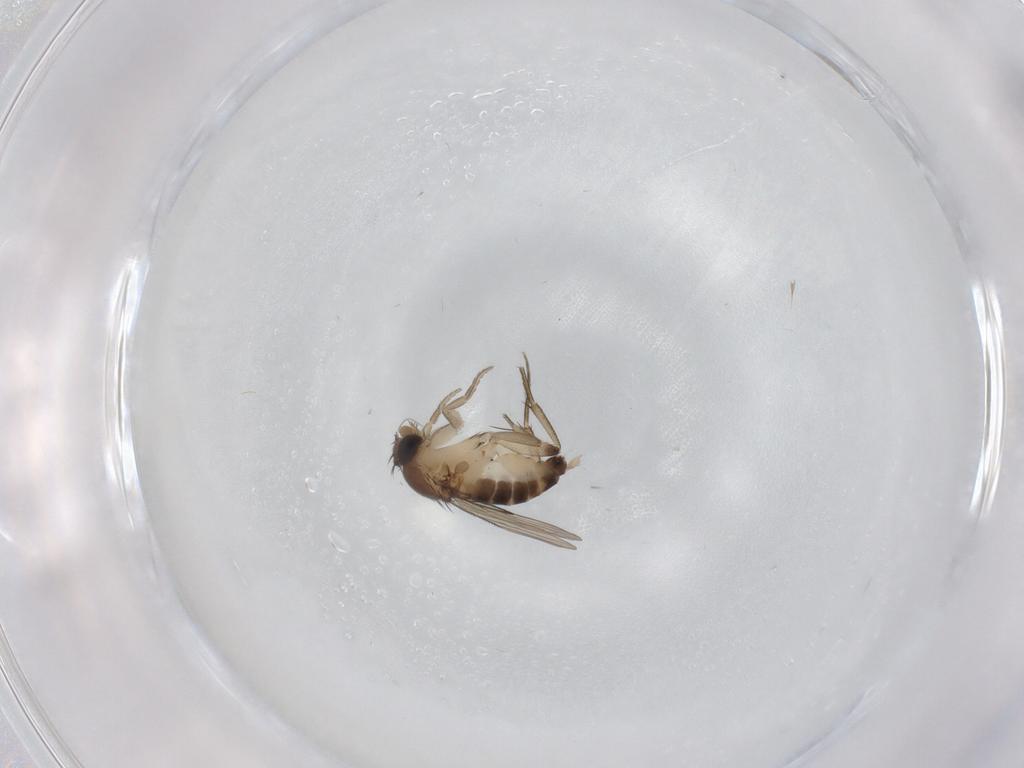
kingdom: Animalia
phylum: Arthropoda
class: Insecta
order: Diptera
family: Phoridae
